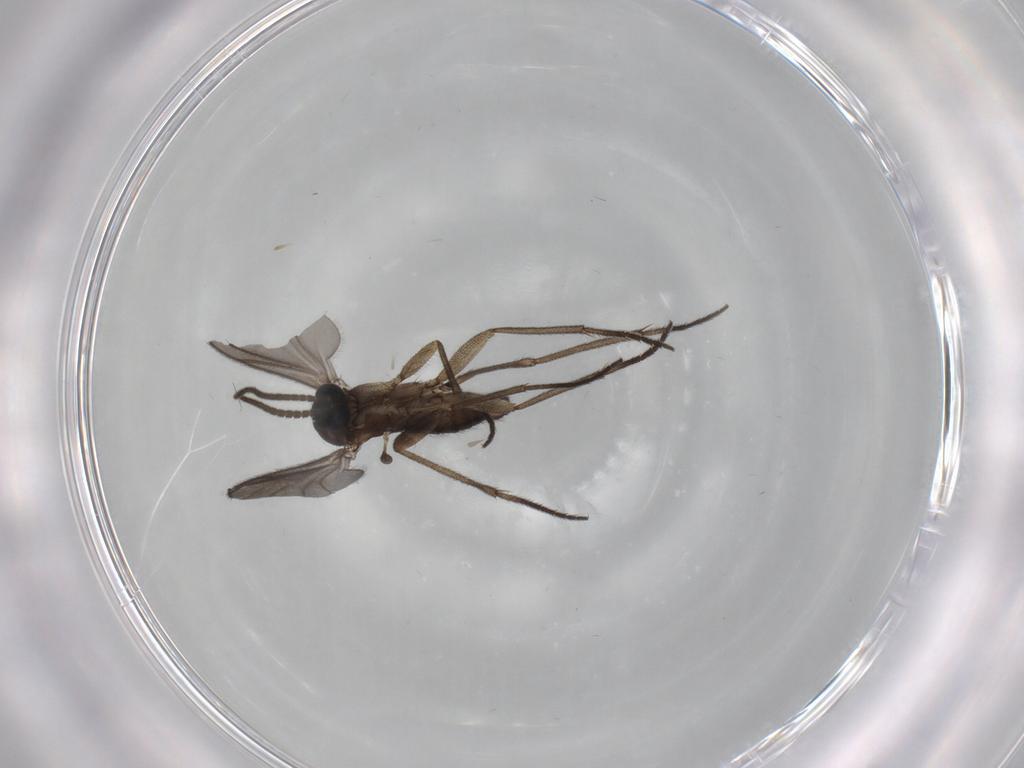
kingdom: Animalia
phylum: Arthropoda
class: Insecta
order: Diptera
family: Sciaridae
